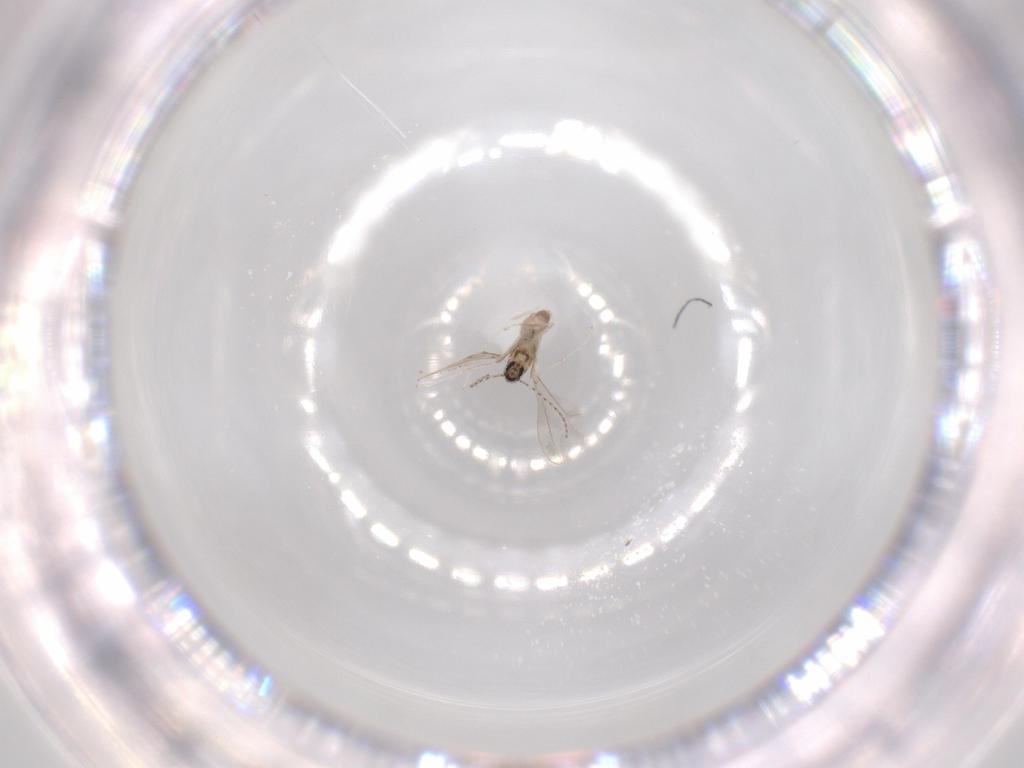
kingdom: Animalia
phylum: Arthropoda
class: Insecta
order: Diptera
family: Cecidomyiidae
